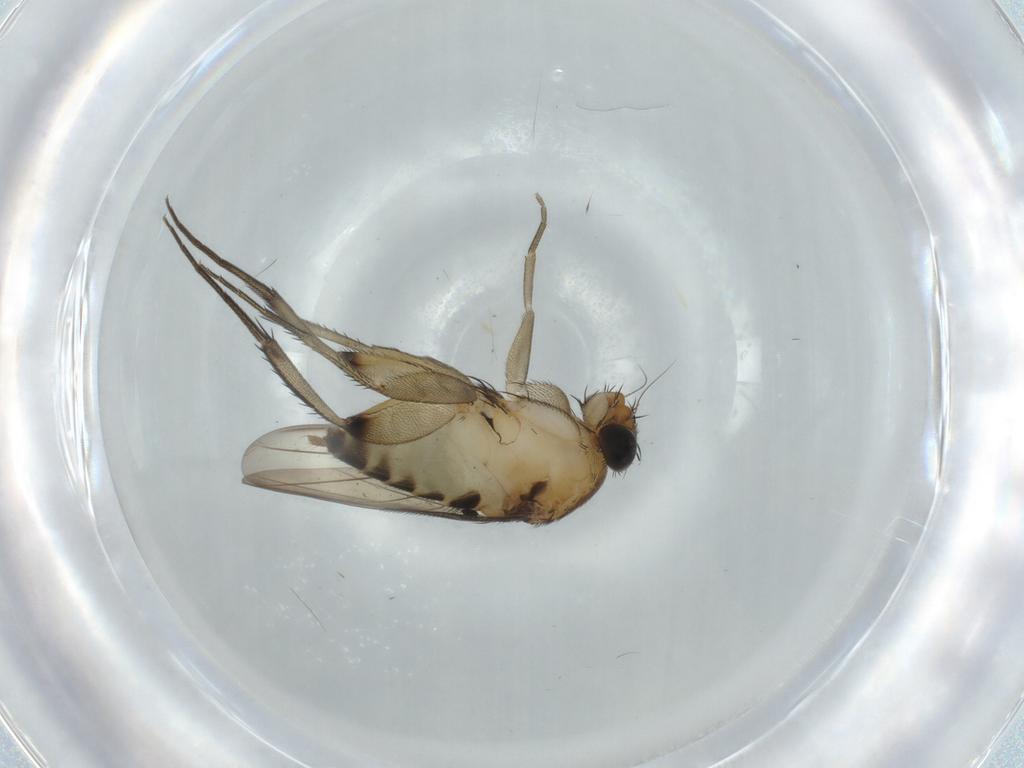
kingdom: Animalia
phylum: Arthropoda
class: Insecta
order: Diptera
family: Phoridae
